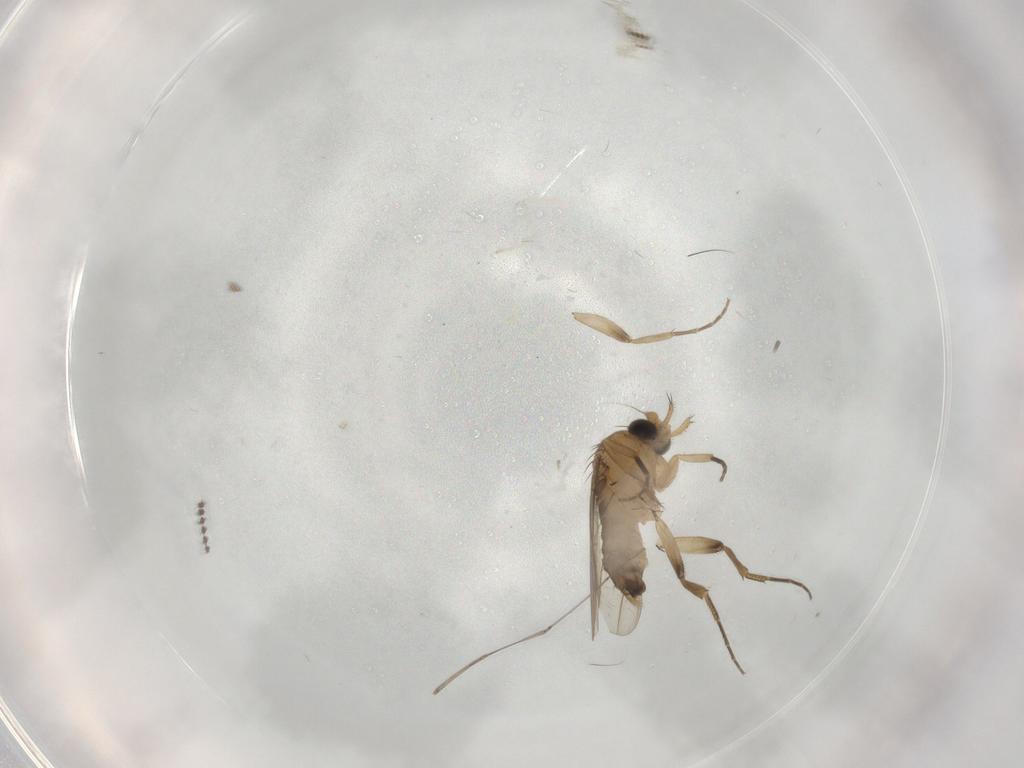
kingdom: Animalia
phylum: Arthropoda
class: Insecta
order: Diptera
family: Cecidomyiidae
